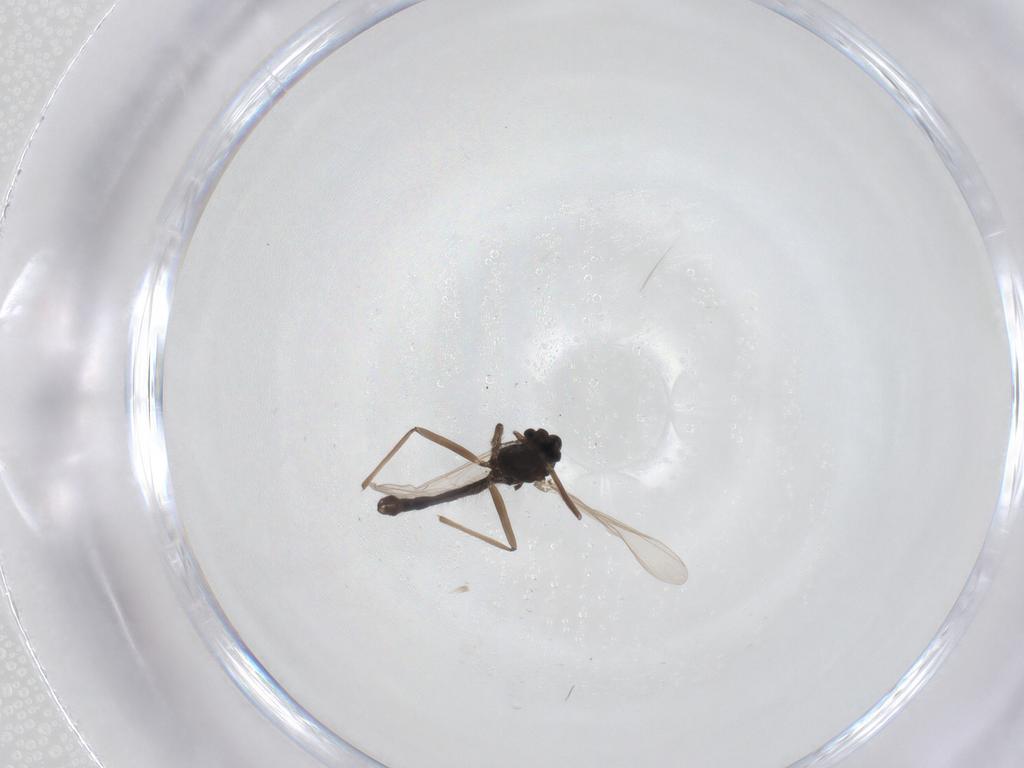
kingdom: Animalia
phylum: Arthropoda
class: Insecta
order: Diptera
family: Chironomidae
